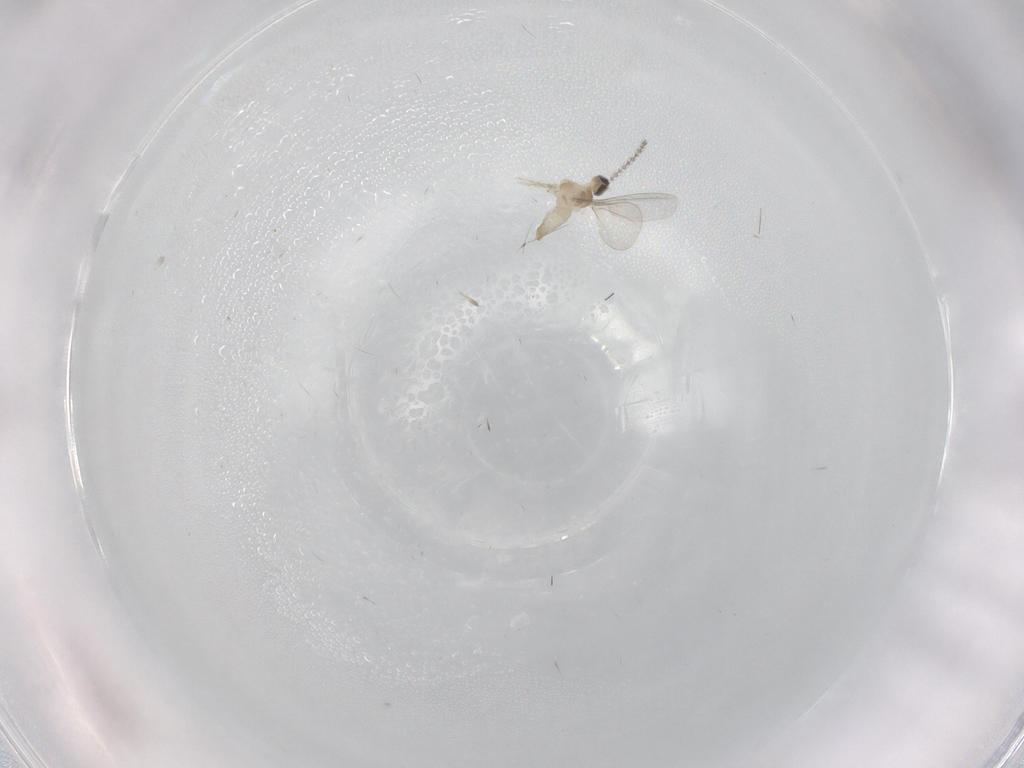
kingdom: Animalia
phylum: Arthropoda
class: Insecta
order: Diptera
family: Cecidomyiidae
